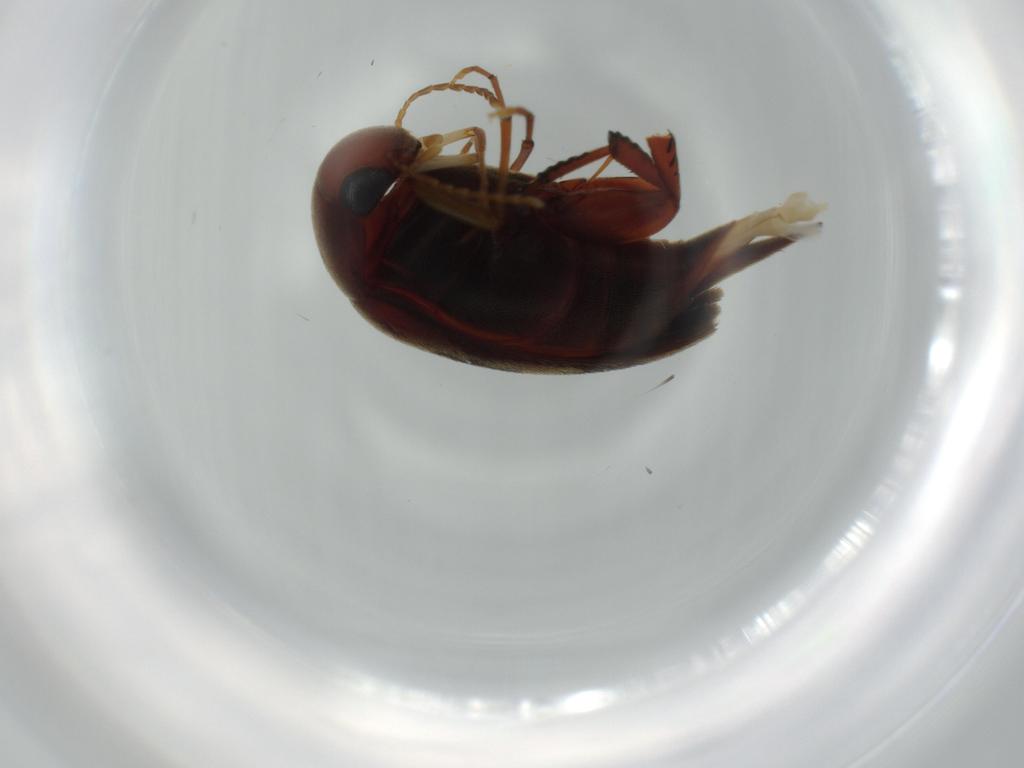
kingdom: Animalia
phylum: Arthropoda
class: Insecta
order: Coleoptera
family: Mordellidae
